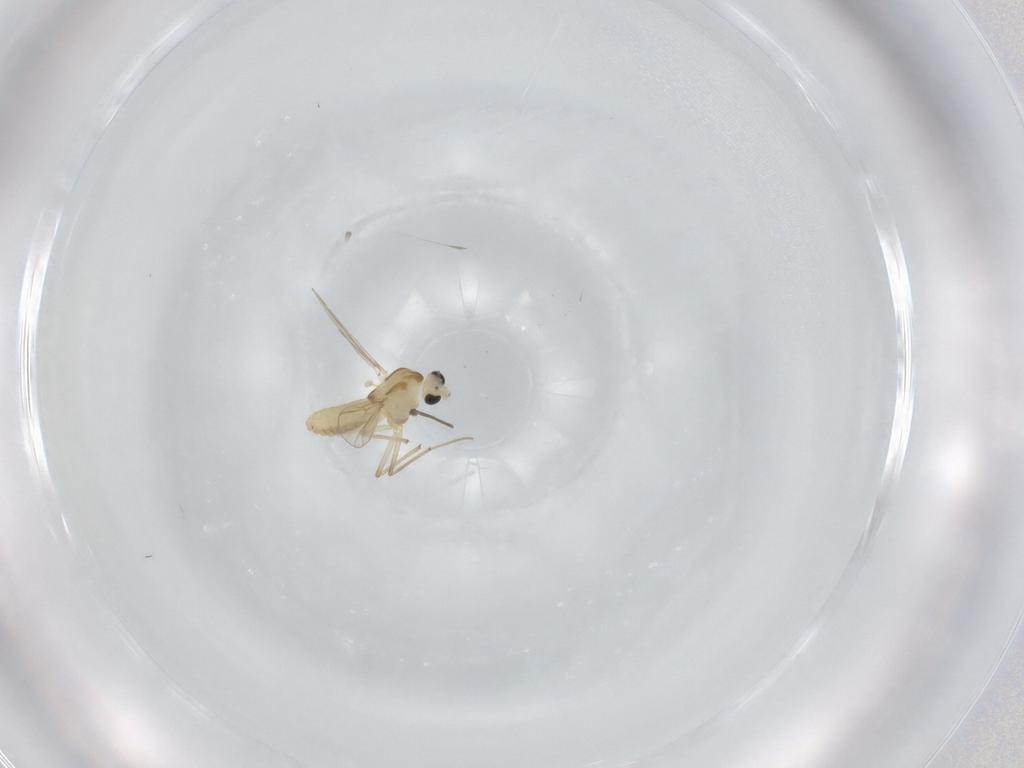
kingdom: Animalia
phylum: Arthropoda
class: Insecta
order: Diptera
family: Chironomidae
